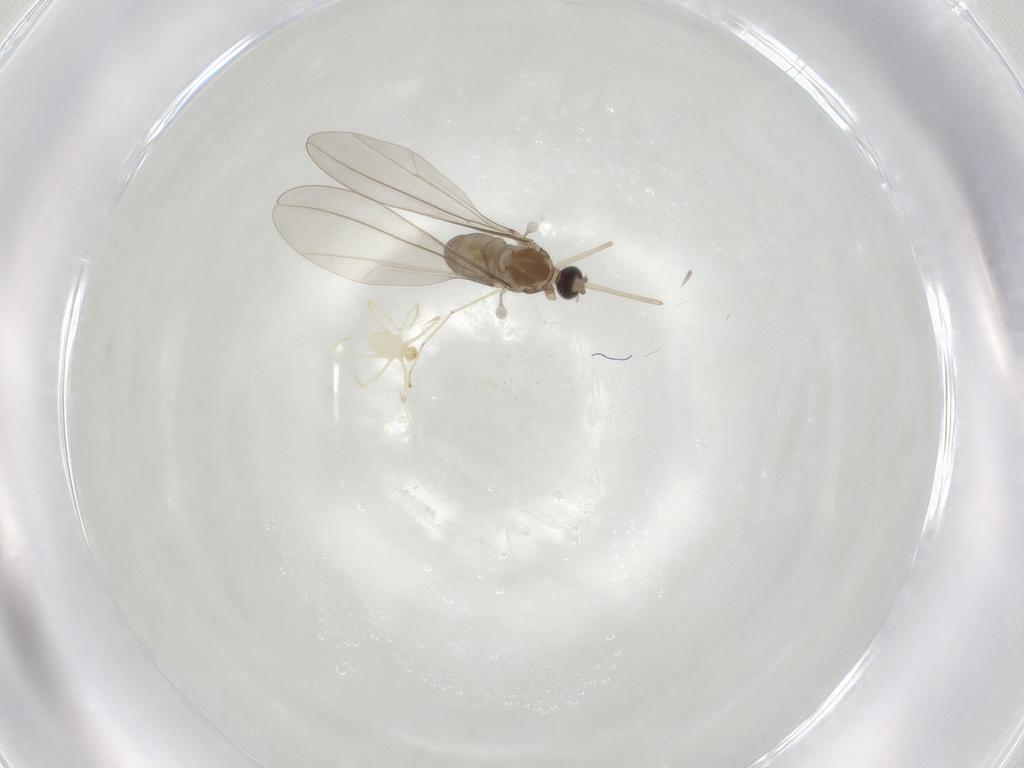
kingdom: Animalia
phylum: Arthropoda
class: Insecta
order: Diptera
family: Cecidomyiidae
